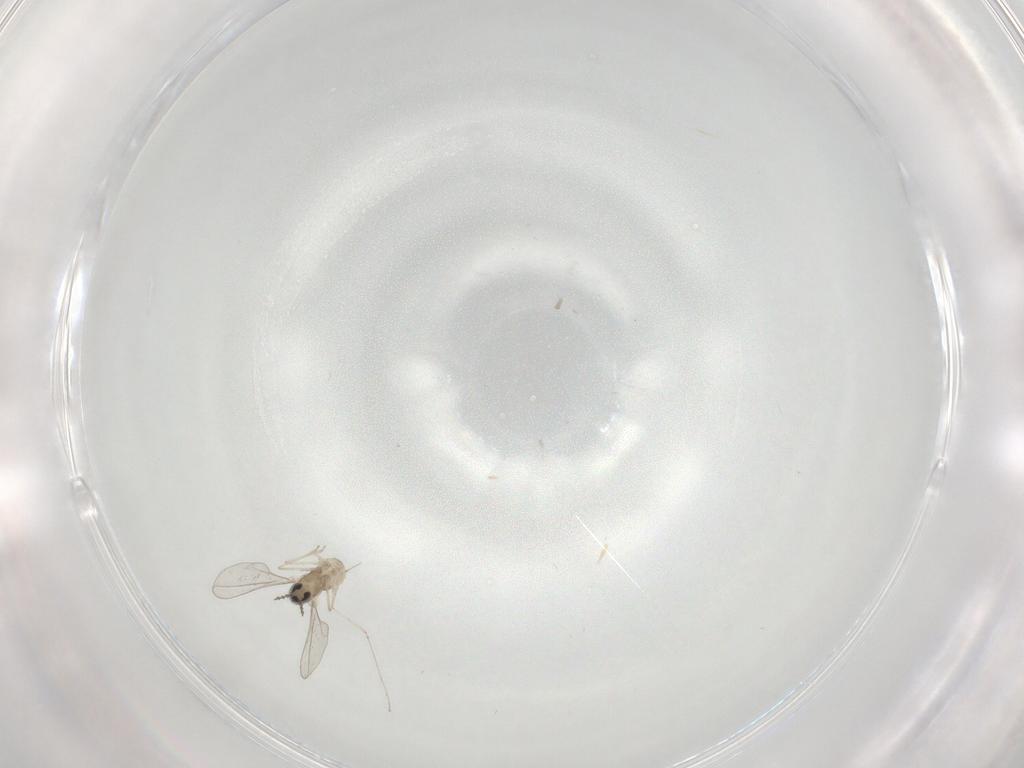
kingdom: Animalia
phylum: Arthropoda
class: Insecta
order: Diptera
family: Cecidomyiidae
